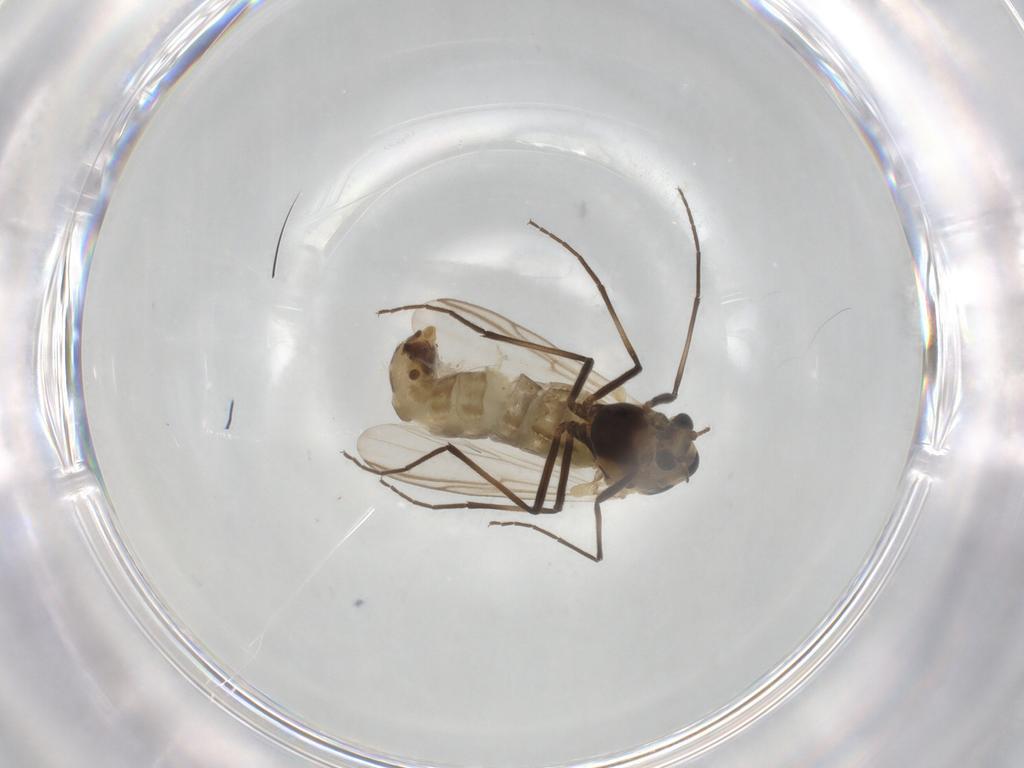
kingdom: Animalia
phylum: Arthropoda
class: Insecta
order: Diptera
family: Chironomidae
